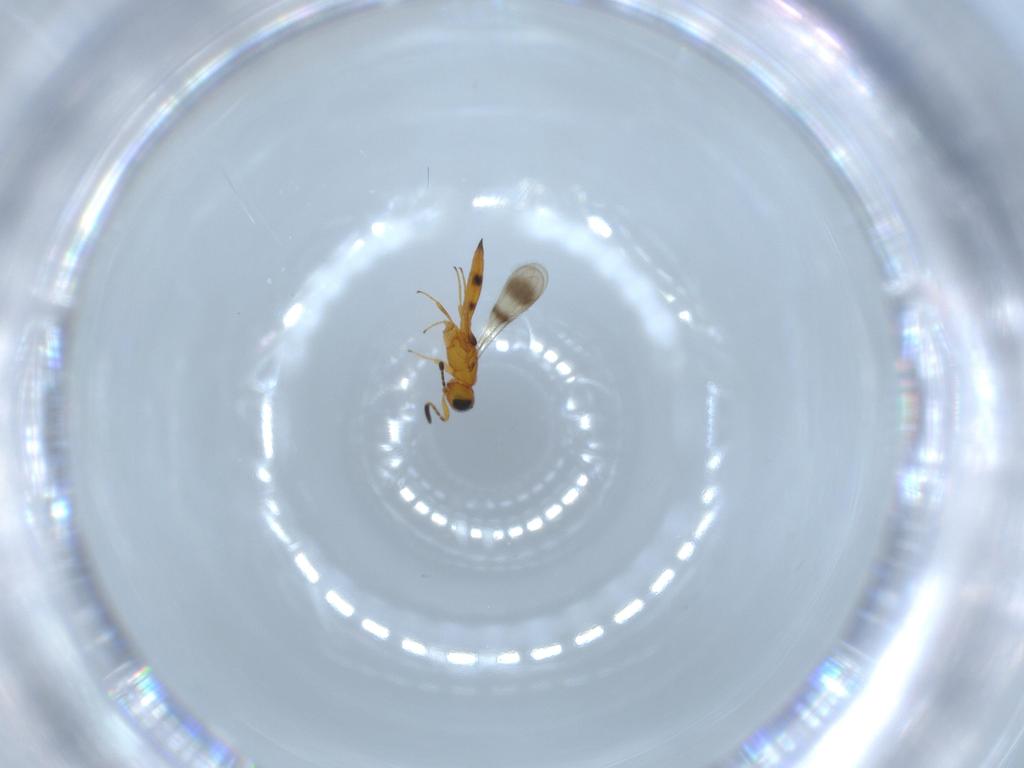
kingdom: Animalia
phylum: Arthropoda
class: Insecta
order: Hymenoptera
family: Scelionidae
